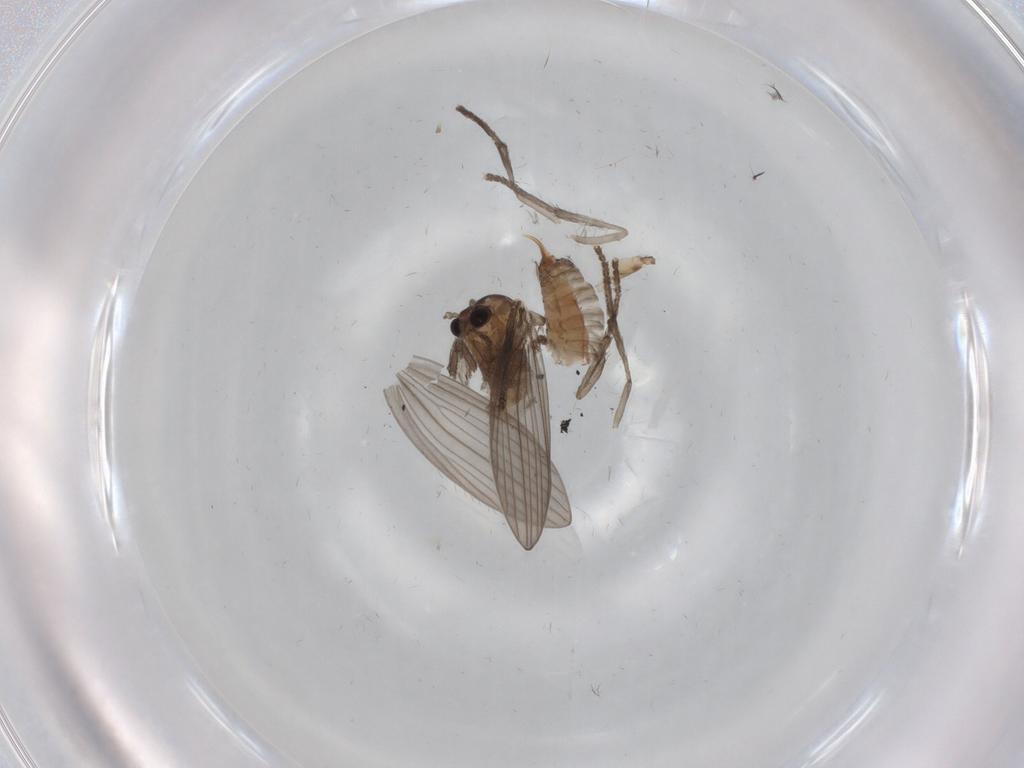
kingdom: Animalia
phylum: Arthropoda
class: Insecta
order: Diptera
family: Psychodidae
